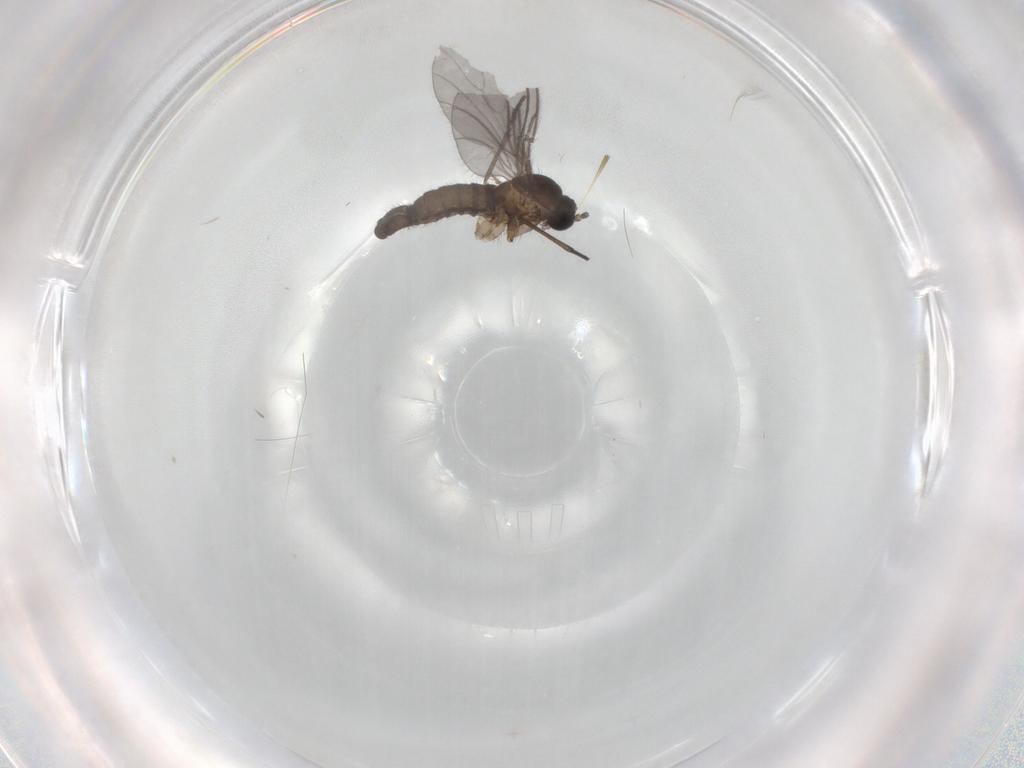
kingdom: Animalia
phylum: Arthropoda
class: Insecta
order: Diptera
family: Sciaridae
